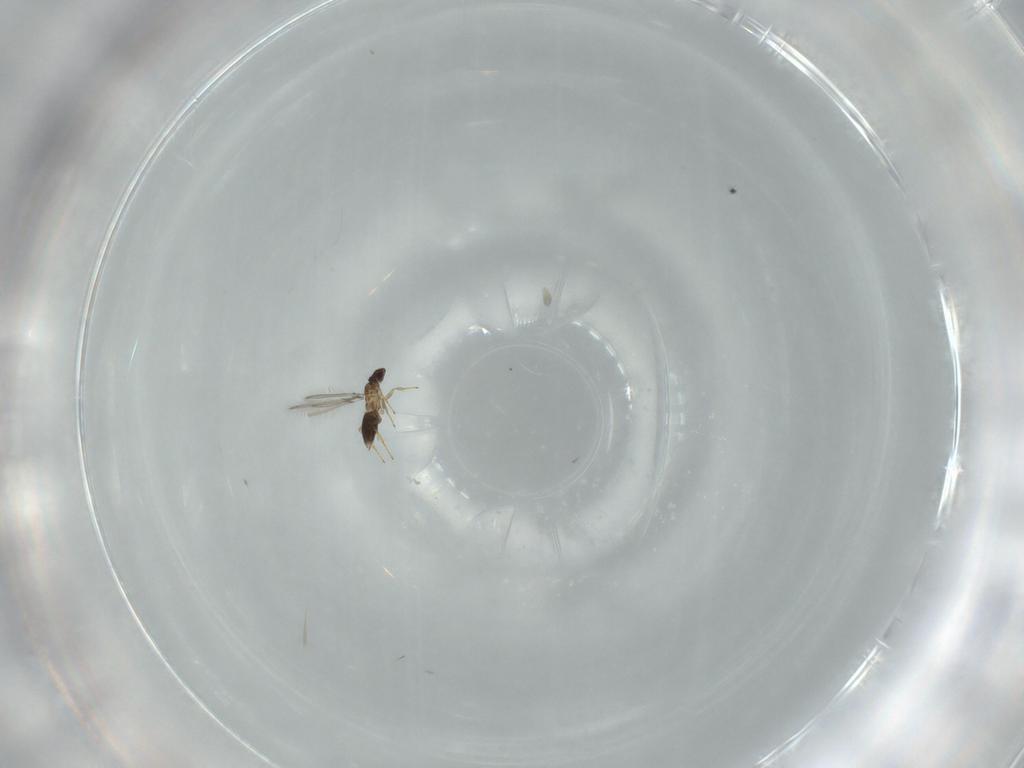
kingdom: Animalia
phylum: Arthropoda
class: Insecta
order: Hymenoptera
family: Mymaridae
